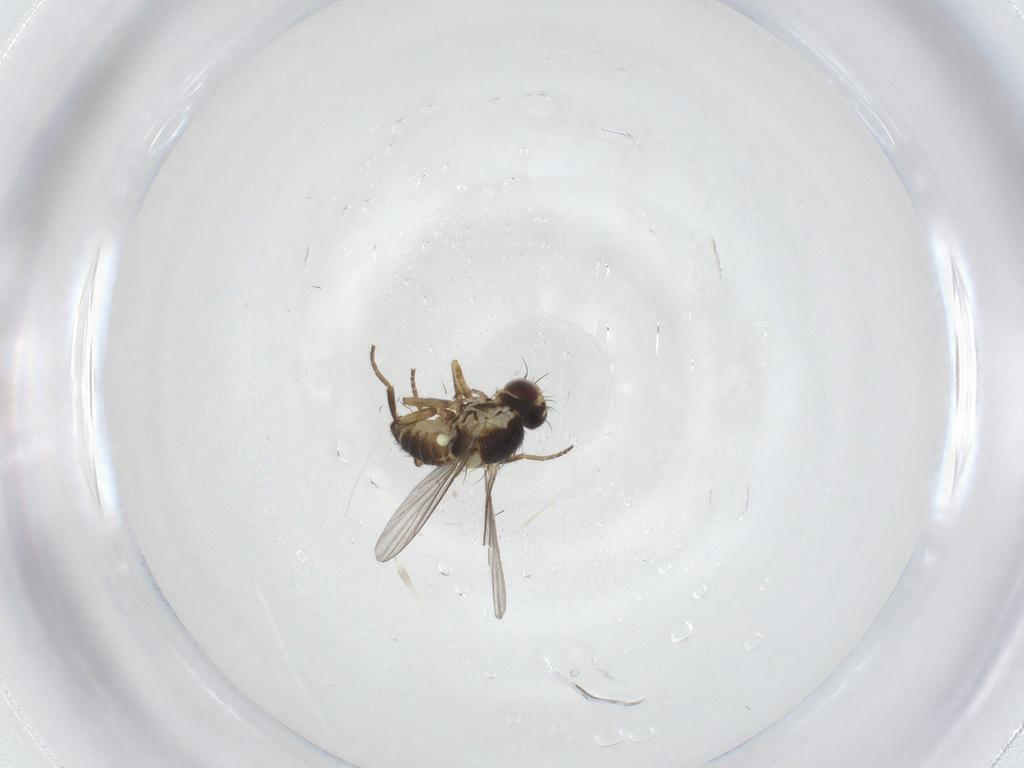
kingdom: Animalia
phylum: Arthropoda
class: Insecta
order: Diptera
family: Agromyzidae
